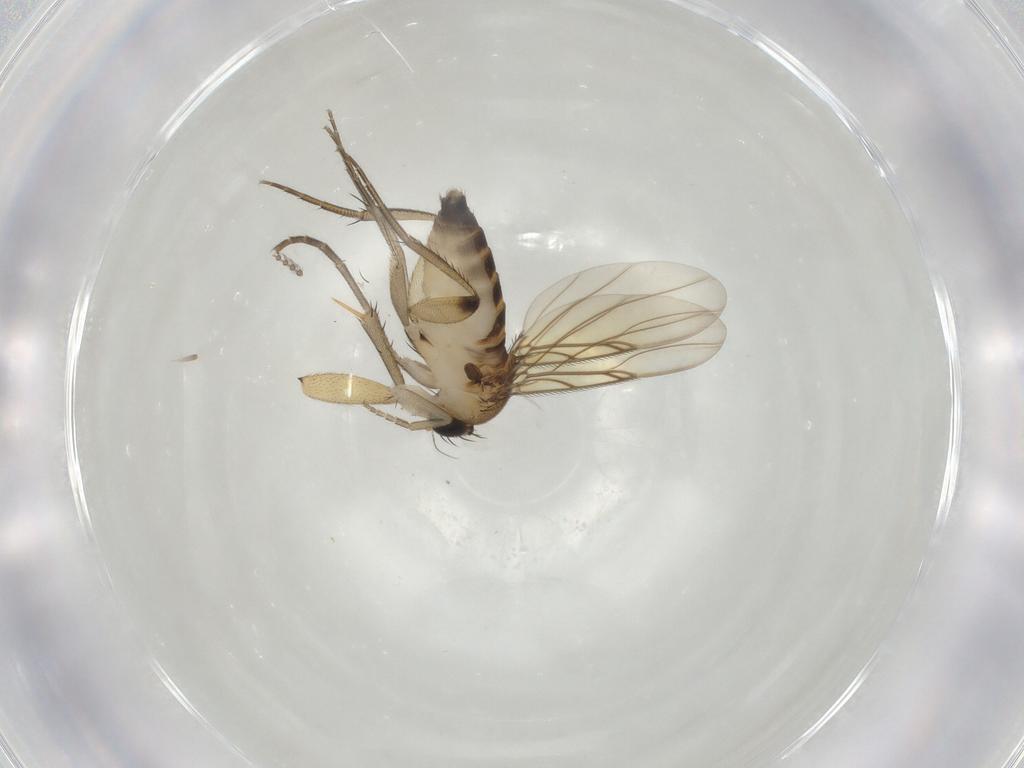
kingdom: Animalia
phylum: Arthropoda
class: Insecta
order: Diptera
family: Phoridae
